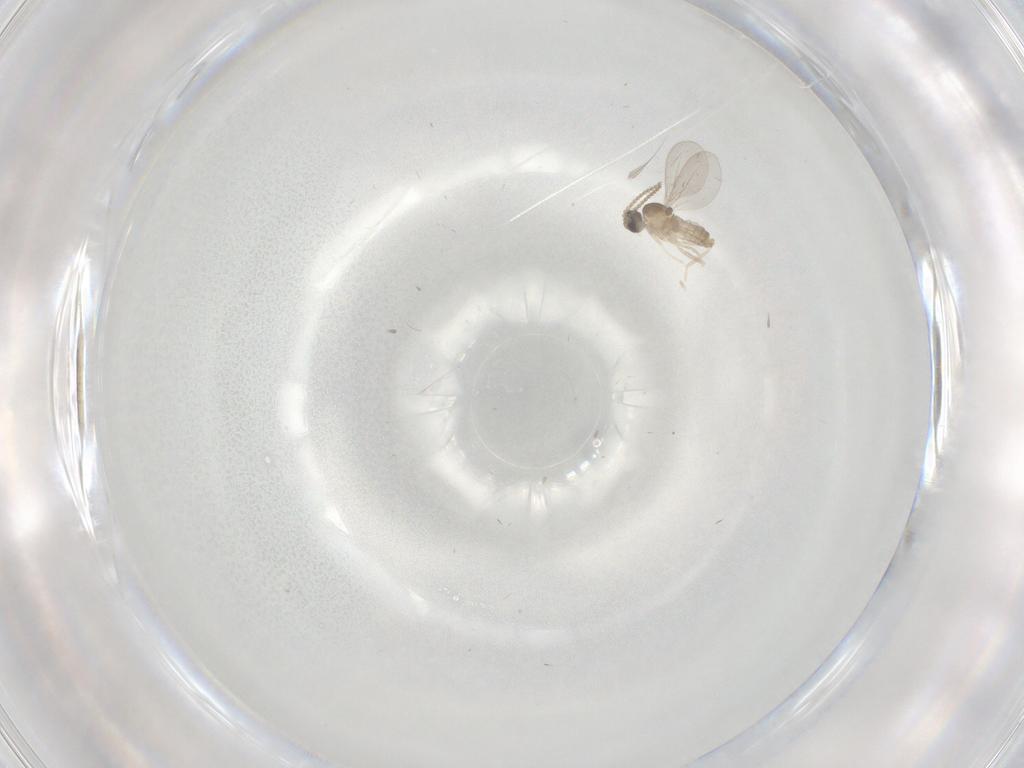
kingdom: Animalia
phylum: Arthropoda
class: Insecta
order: Diptera
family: Cecidomyiidae
